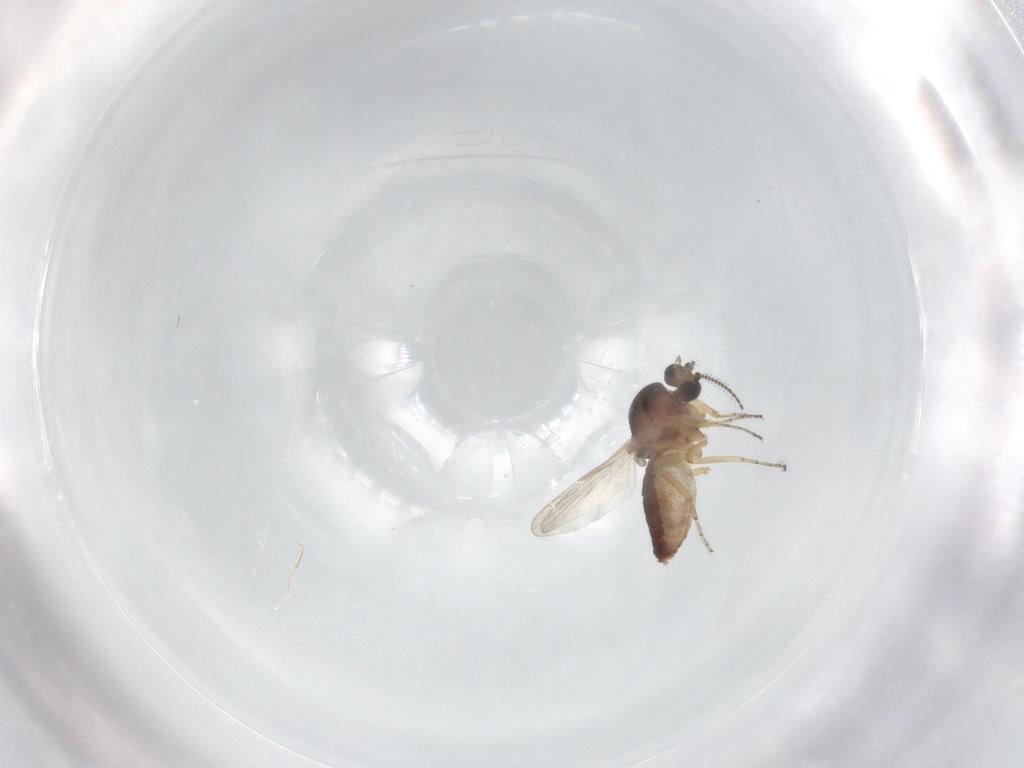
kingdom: Animalia
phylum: Arthropoda
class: Insecta
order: Diptera
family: Ceratopogonidae
